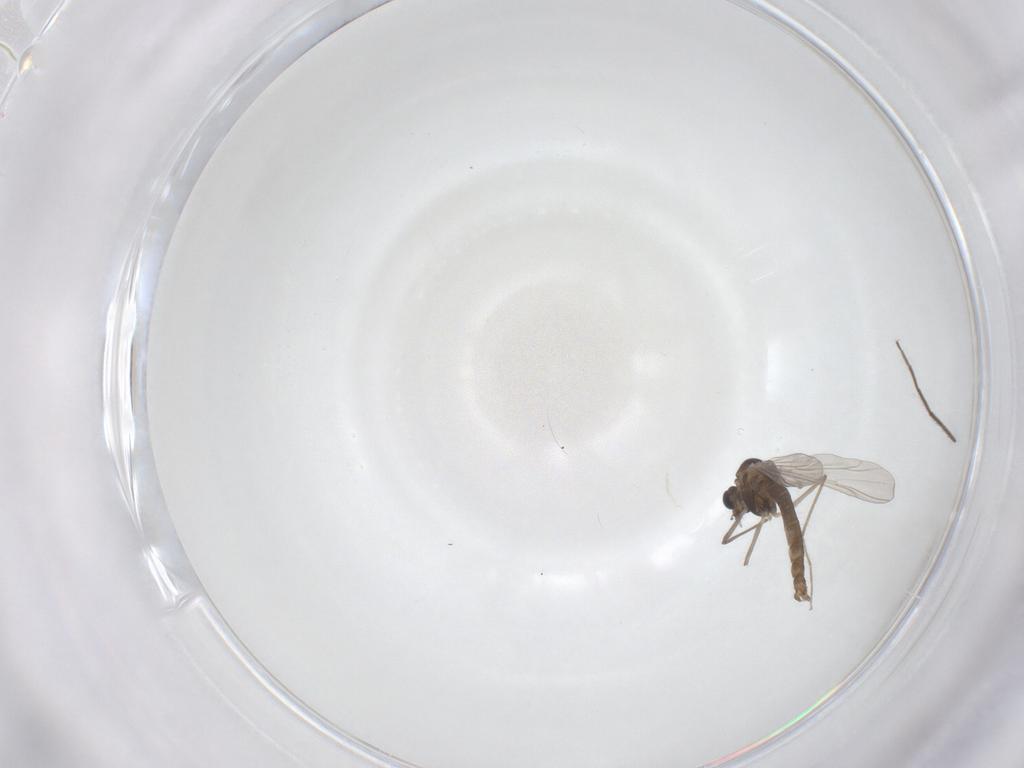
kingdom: Animalia
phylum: Arthropoda
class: Insecta
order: Diptera
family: Chironomidae
